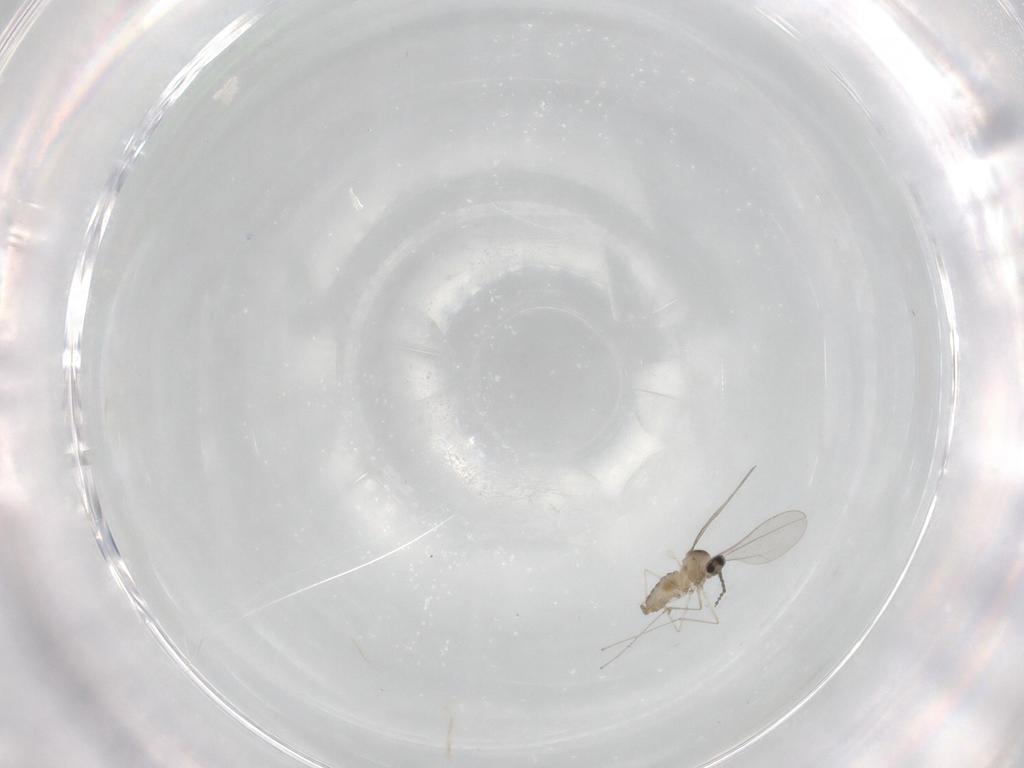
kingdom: Animalia
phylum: Arthropoda
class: Insecta
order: Diptera
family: Cecidomyiidae
